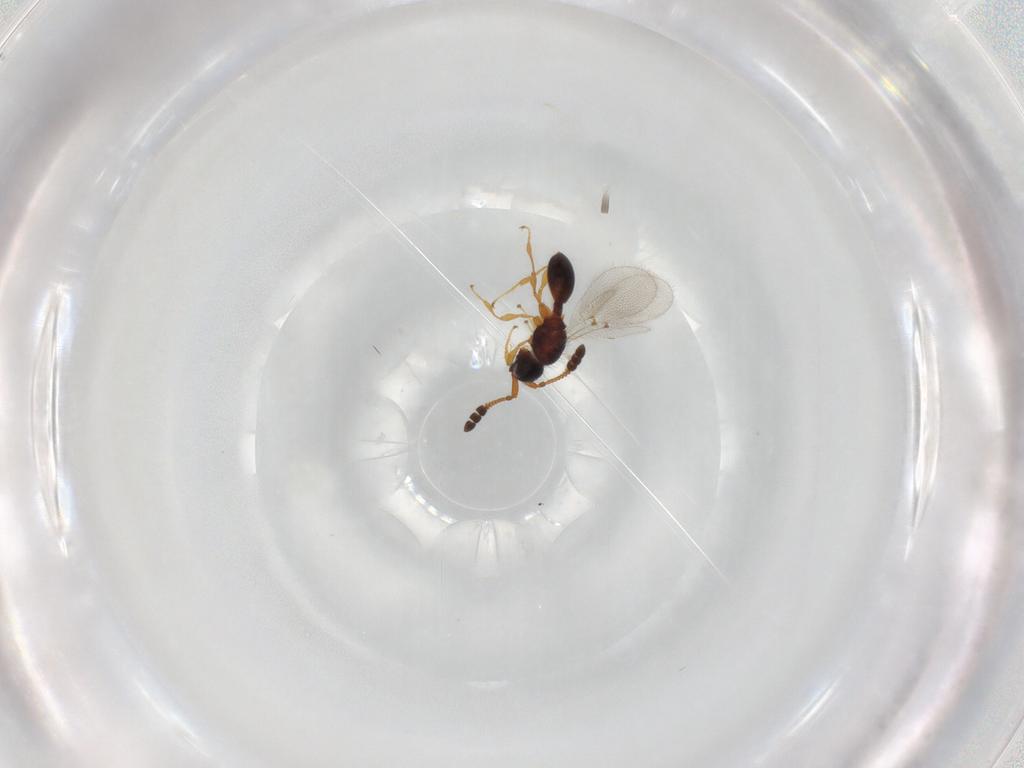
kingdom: Animalia
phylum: Arthropoda
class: Insecta
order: Hymenoptera
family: Diapriidae
